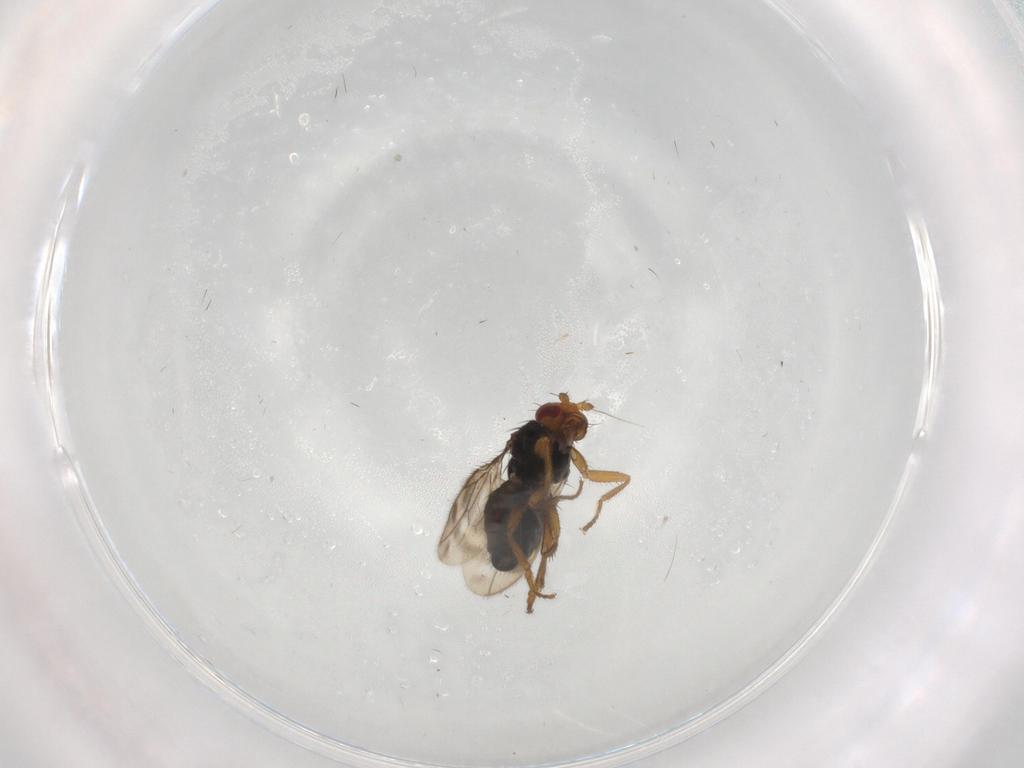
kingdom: Animalia
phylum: Arthropoda
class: Insecta
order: Diptera
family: Sphaeroceridae
